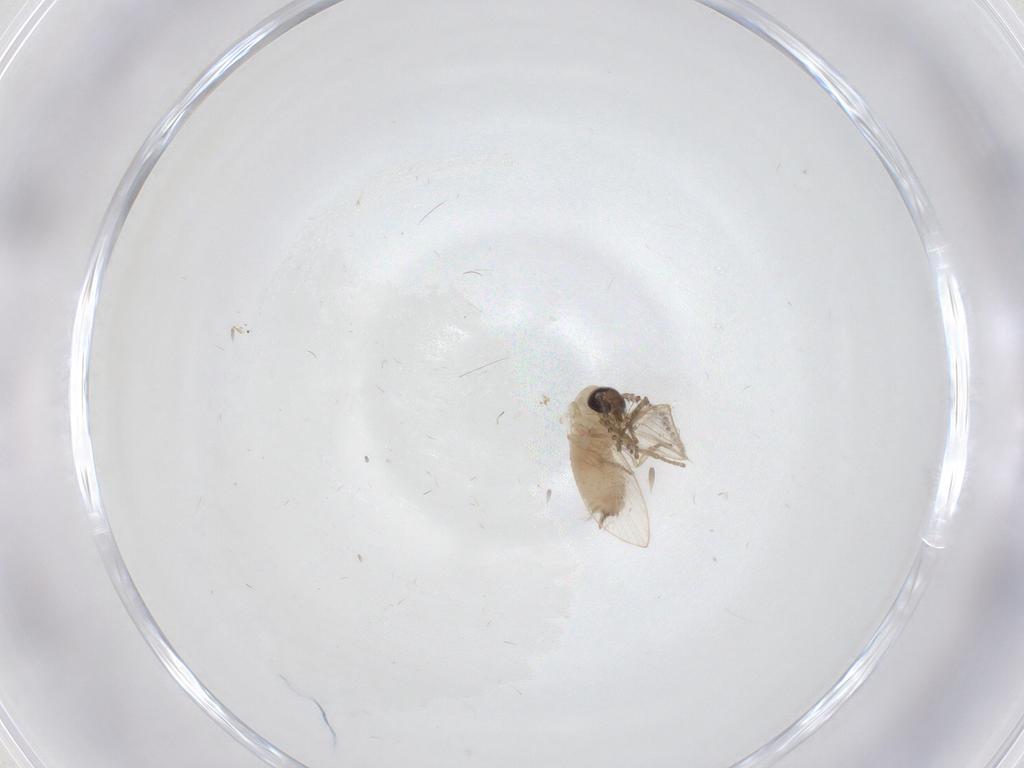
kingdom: Animalia
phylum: Arthropoda
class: Insecta
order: Diptera
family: Psychodidae
